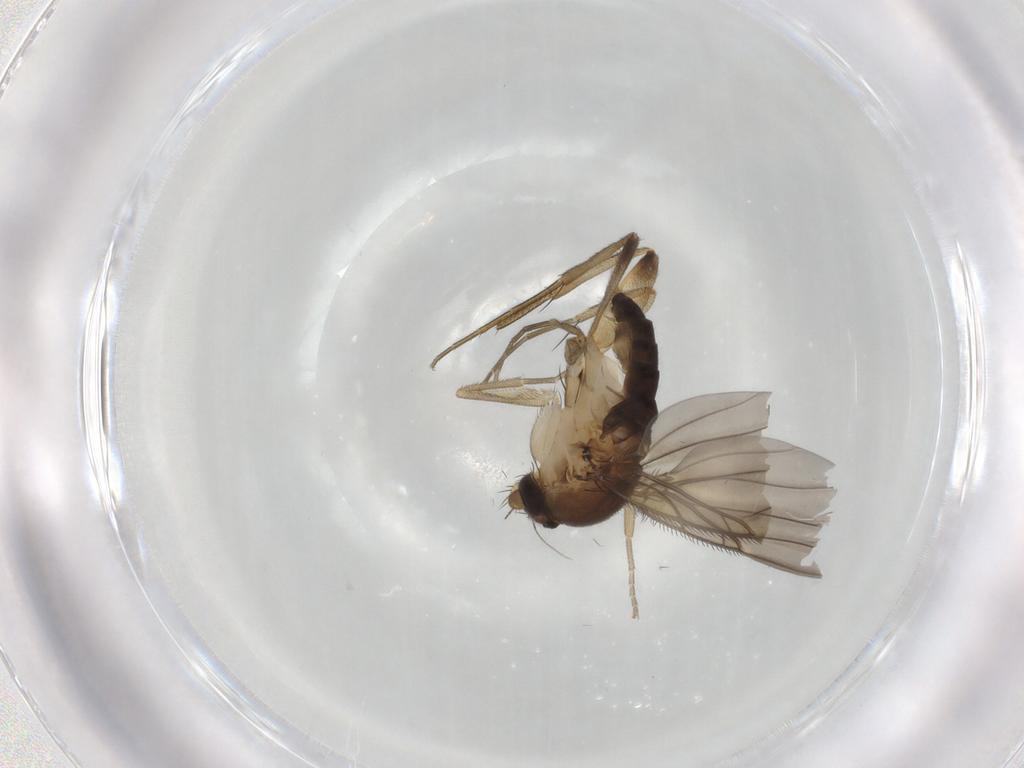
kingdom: Animalia
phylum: Arthropoda
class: Insecta
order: Diptera
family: Phoridae
